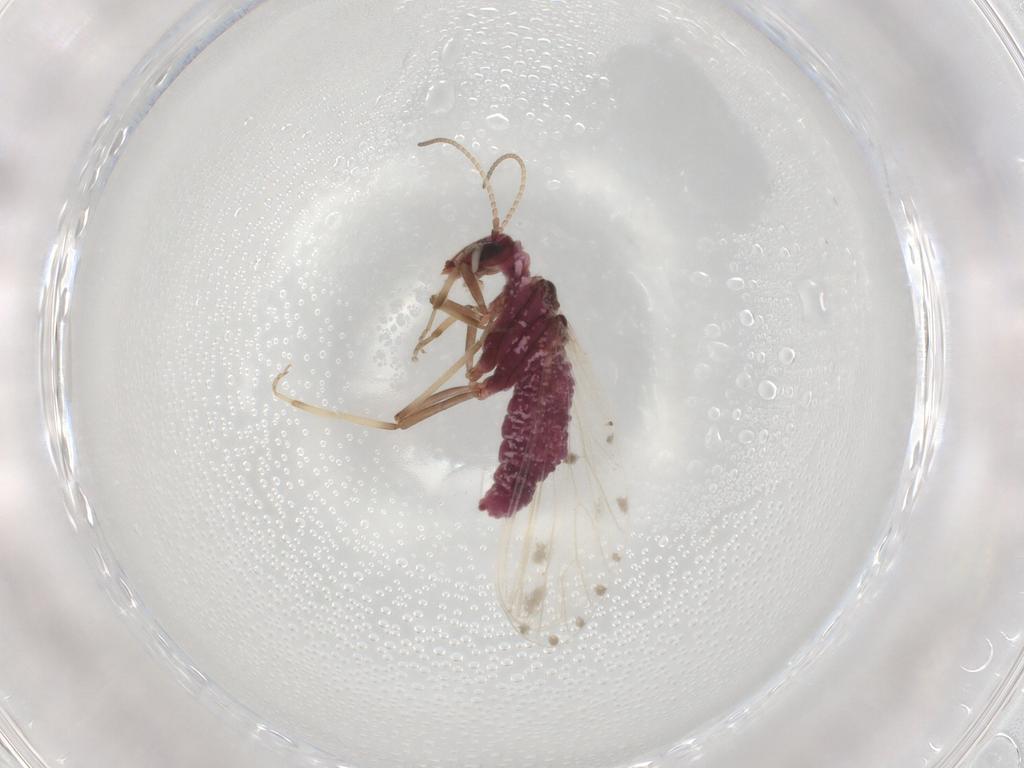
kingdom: Animalia
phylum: Arthropoda
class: Insecta
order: Neuroptera
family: Coniopterygidae
